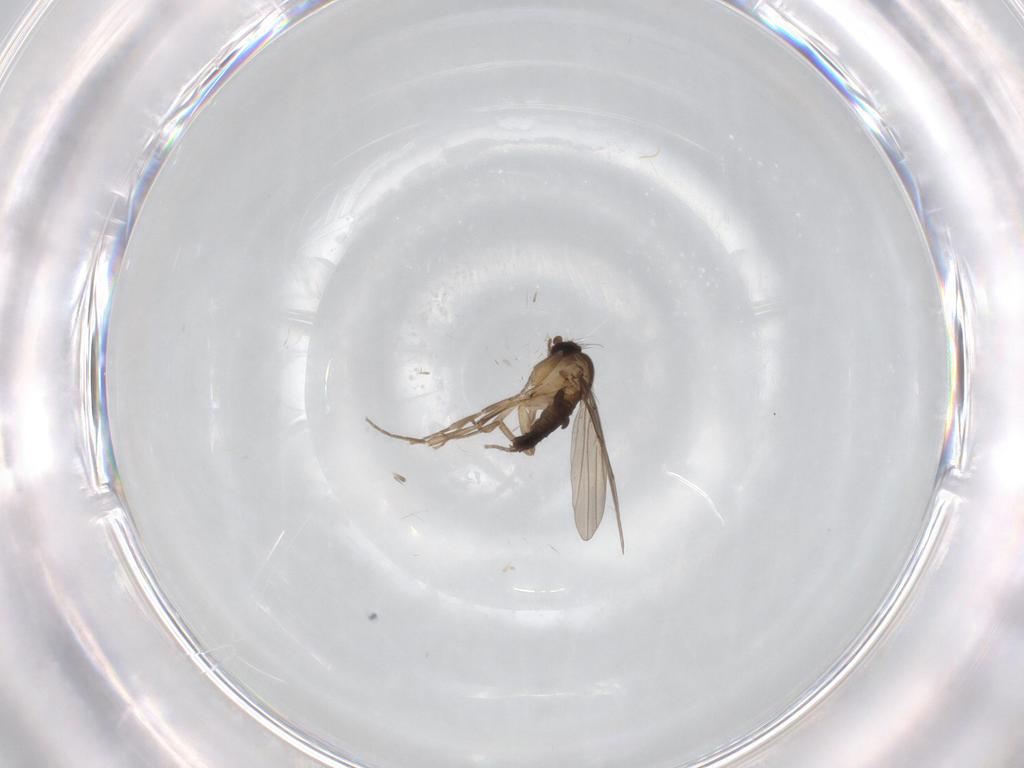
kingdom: Animalia
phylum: Arthropoda
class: Insecta
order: Diptera
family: Phoridae
